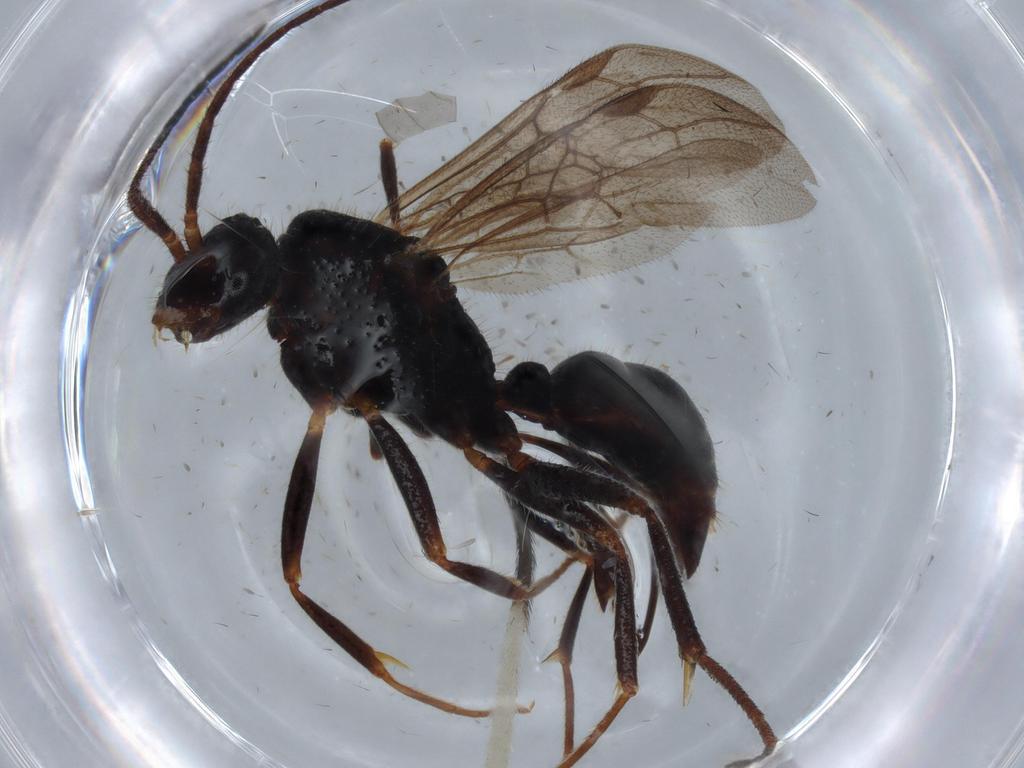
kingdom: Animalia
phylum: Arthropoda
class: Insecta
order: Hymenoptera
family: Formicidae
